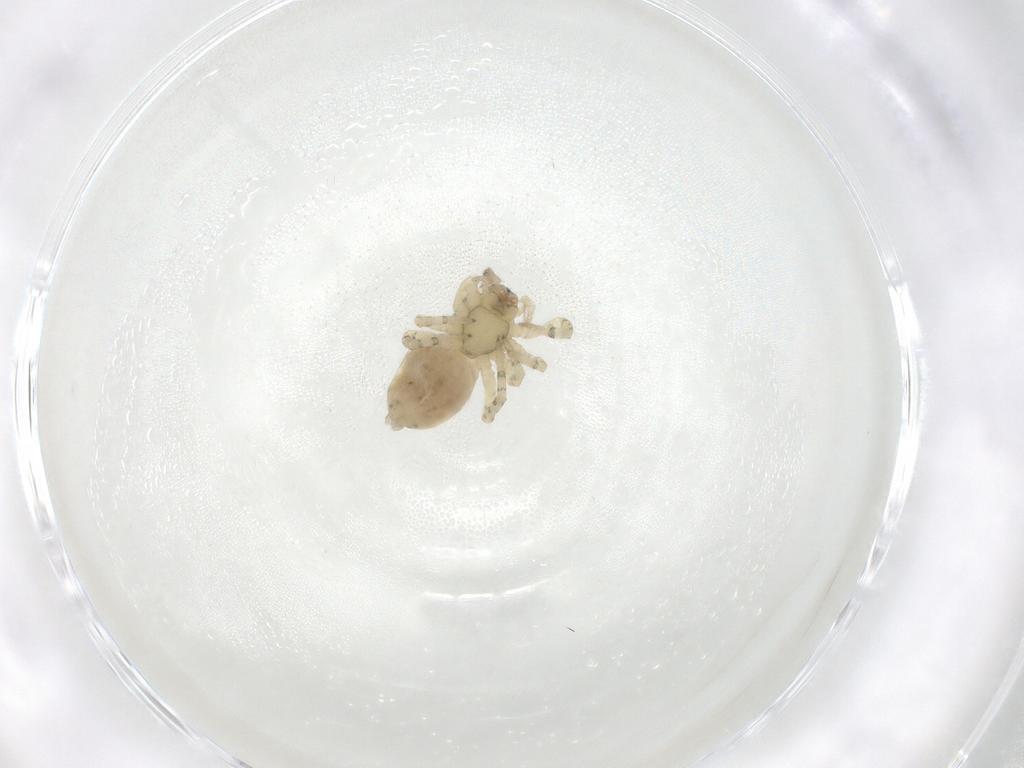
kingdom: Animalia
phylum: Arthropoda
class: Arachnida
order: Araneae
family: Trachelidae
